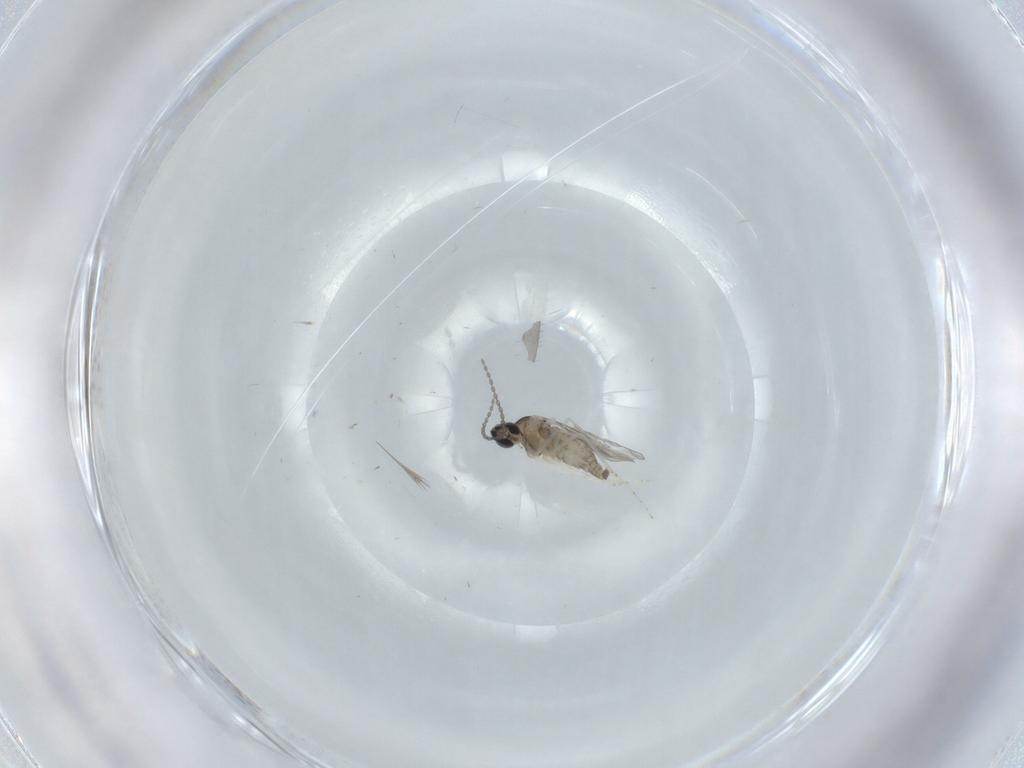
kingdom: Animalia
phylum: Arthropoda
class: Insecta
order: Diptera
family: Cecidomyiidae
